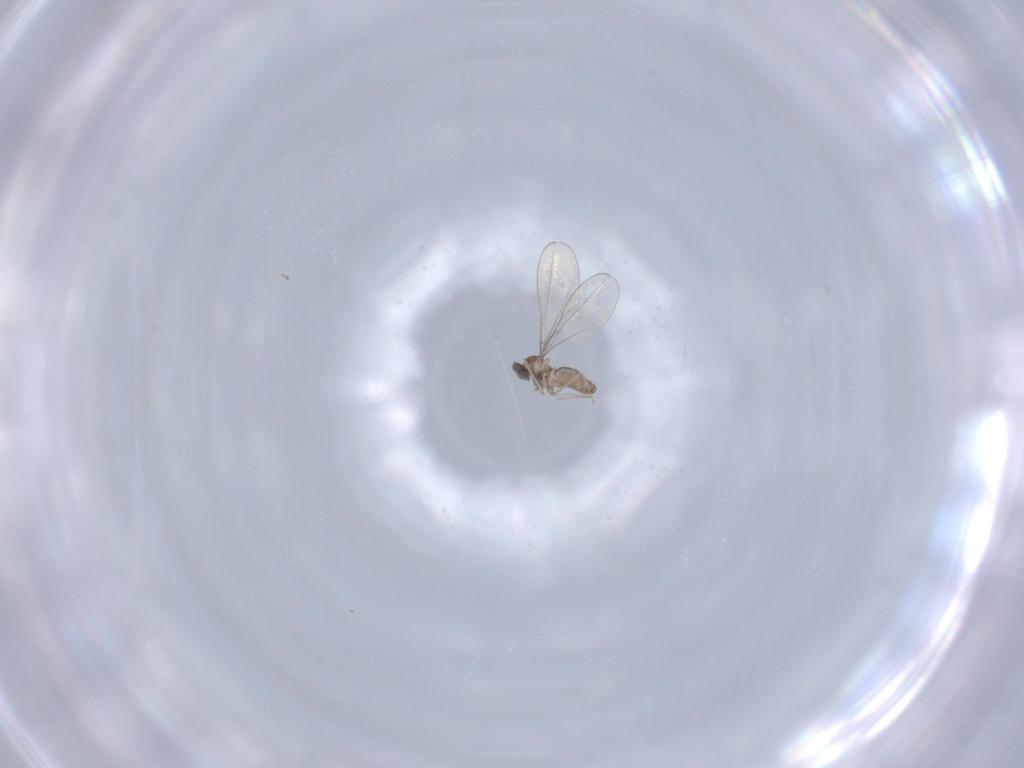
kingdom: Animalia
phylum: Arthropoda
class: Insecta
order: Diptera
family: Cecidomyiidae
